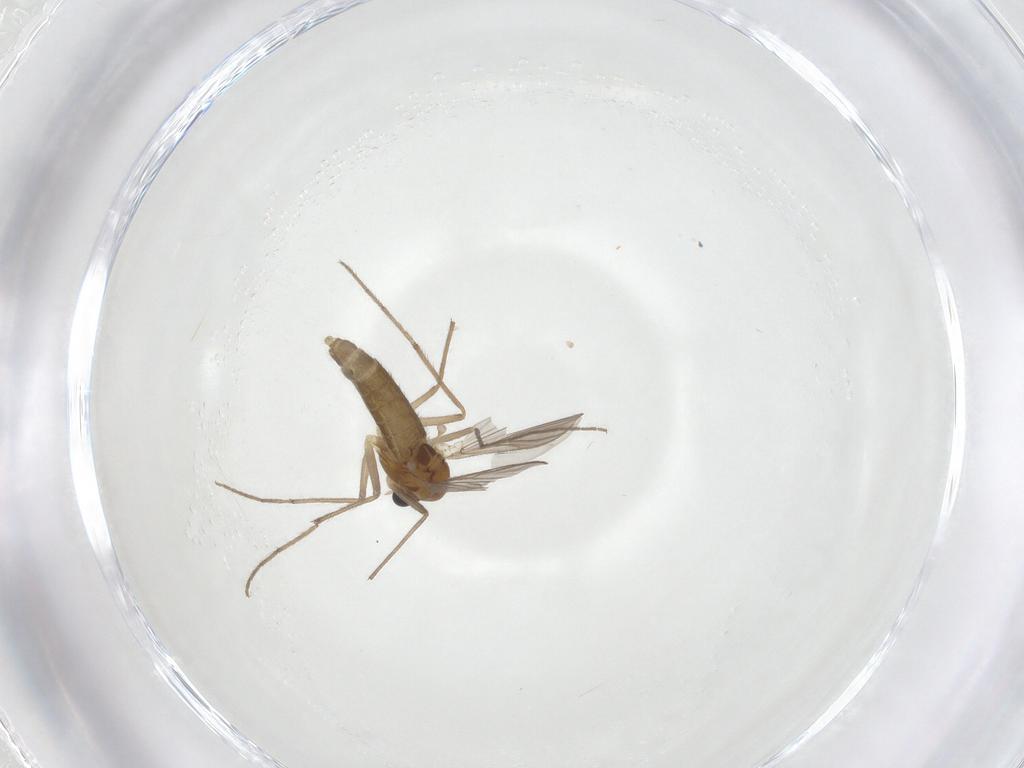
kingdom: Animalia
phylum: Arthropoda
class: Insecta
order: Diptera
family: Chironomidae
